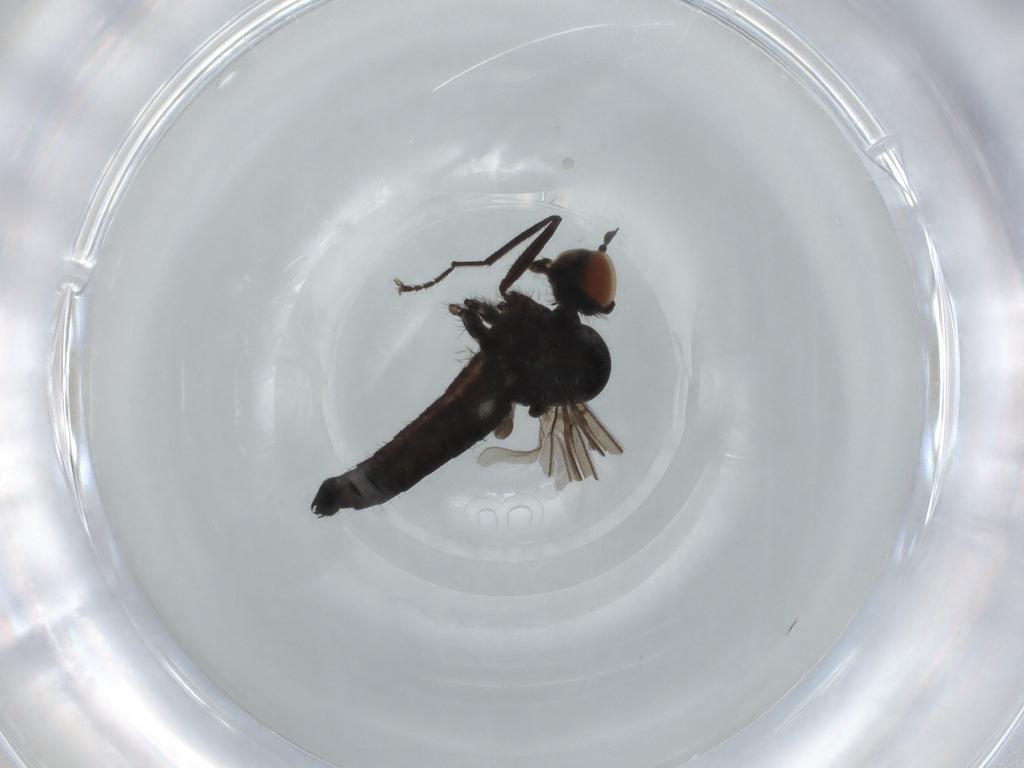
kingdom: Animalia
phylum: Arthropoda
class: Insecta
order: Diptera
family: Hybotidae
